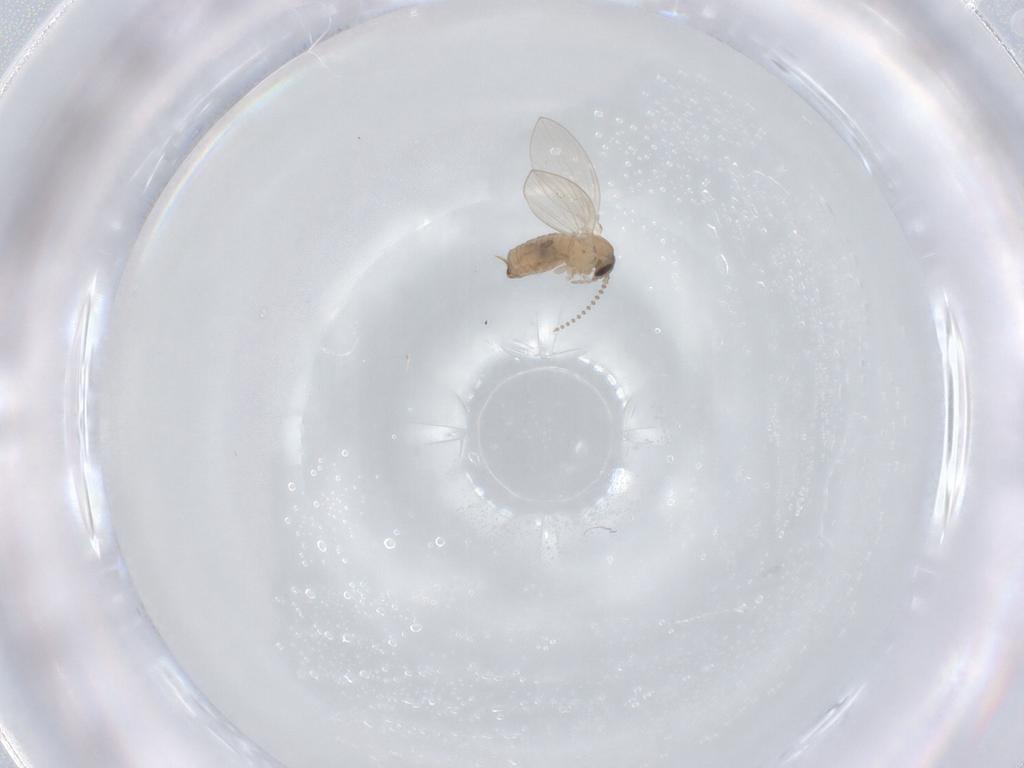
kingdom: Animalia
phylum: Arthropoda
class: Insecta
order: Diptera
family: Psychodidae
